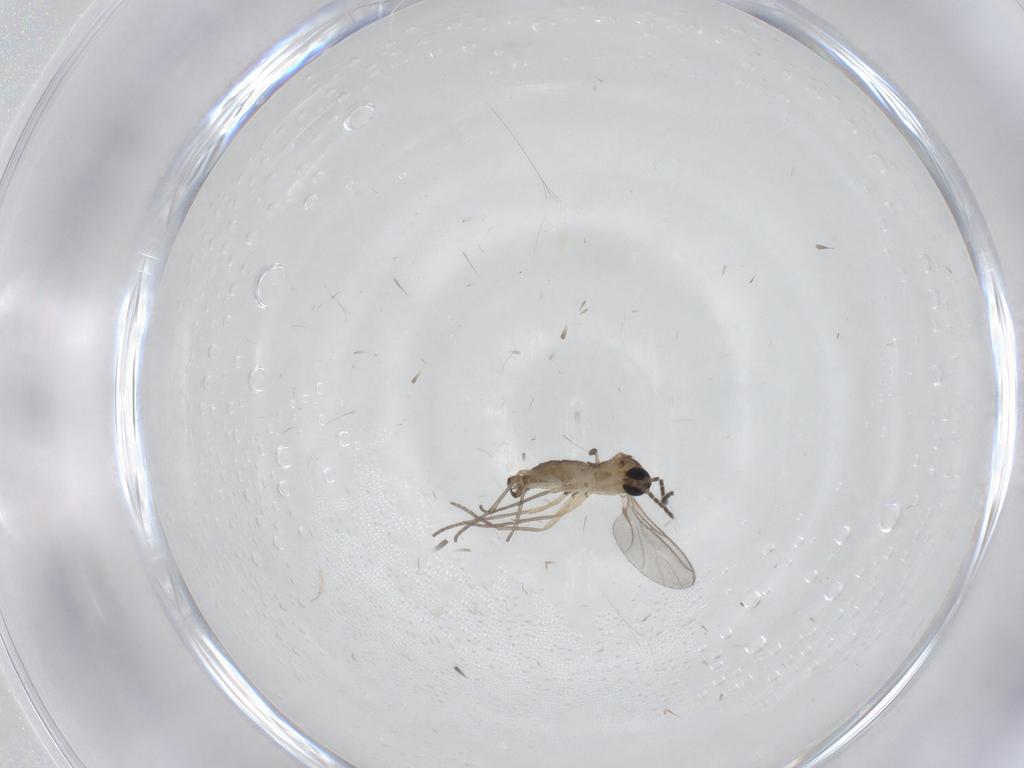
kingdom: Animalia
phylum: Arthropoda
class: Insecta
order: Diptera
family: Sciaridae
